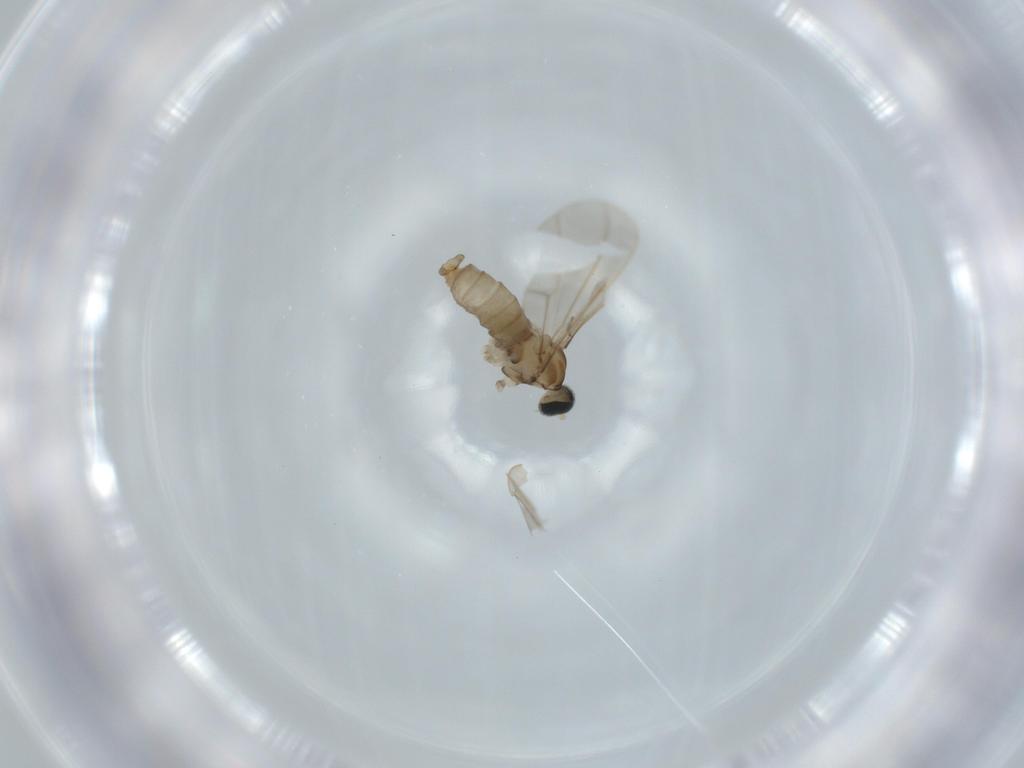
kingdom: Animalia
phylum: Arthropoda
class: Insecta
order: Diptera
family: Cecidomyiidae
